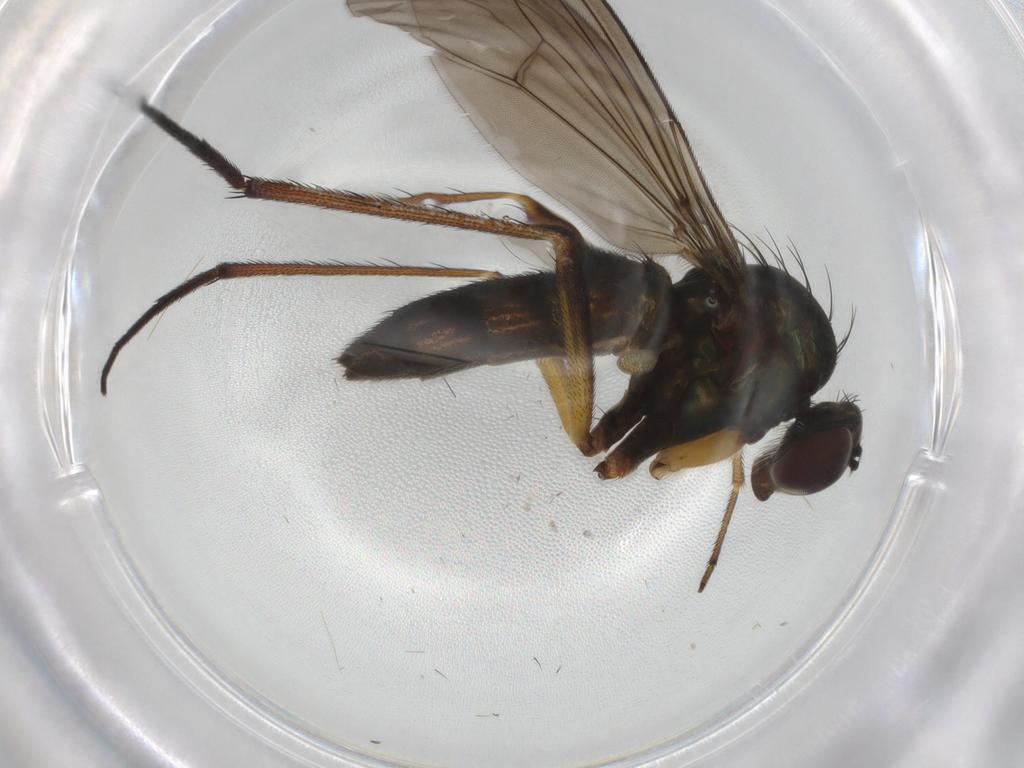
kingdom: Animalia
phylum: Arthropoda
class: Insecta
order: Diptera
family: Dolichopodidae
